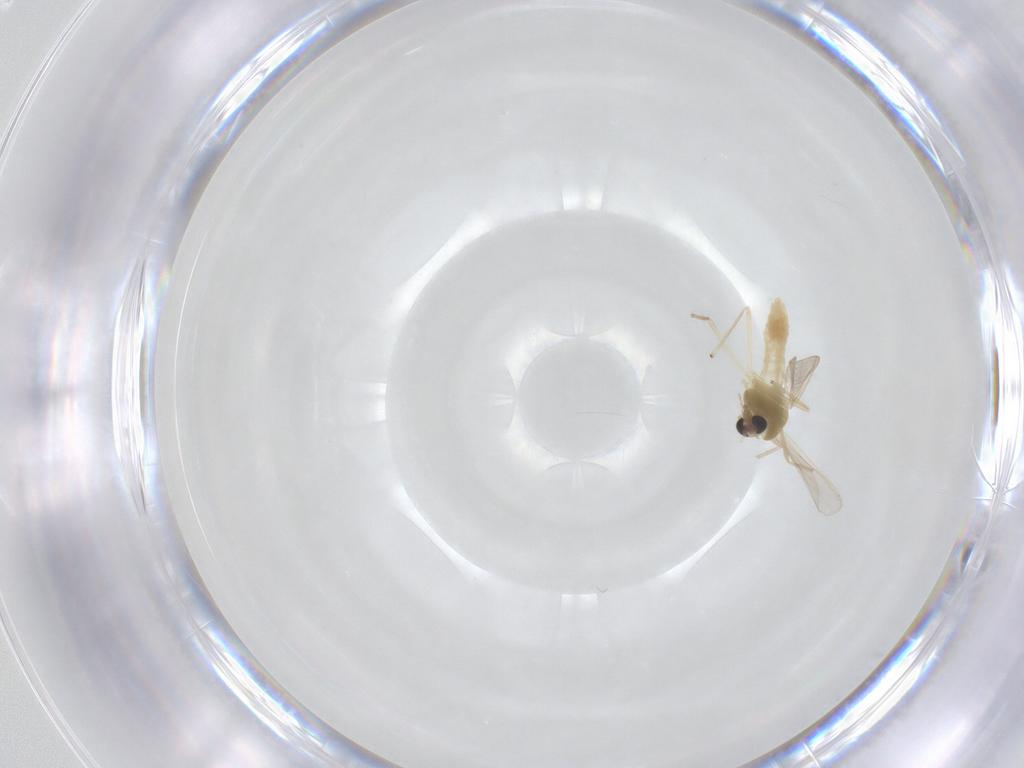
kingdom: Animalia
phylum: Arthropoda
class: Insecta
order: Diptera
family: Chironomidae
